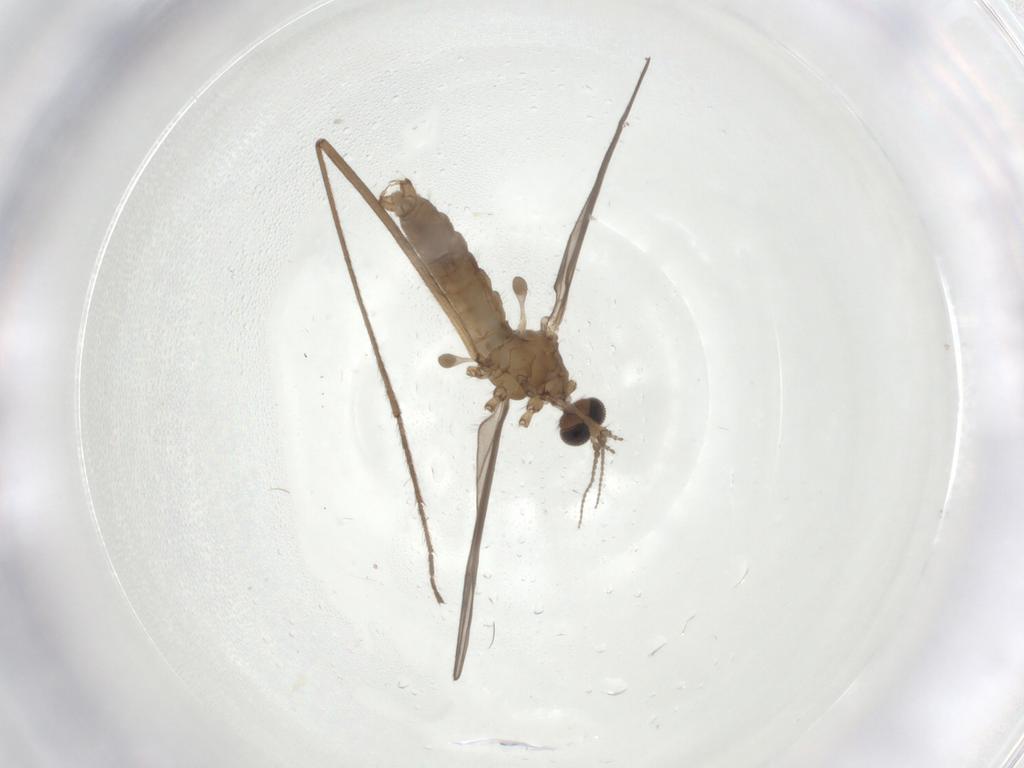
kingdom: Animalia
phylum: Arthropoda
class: Insecta
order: Diptera
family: Limoniidae
